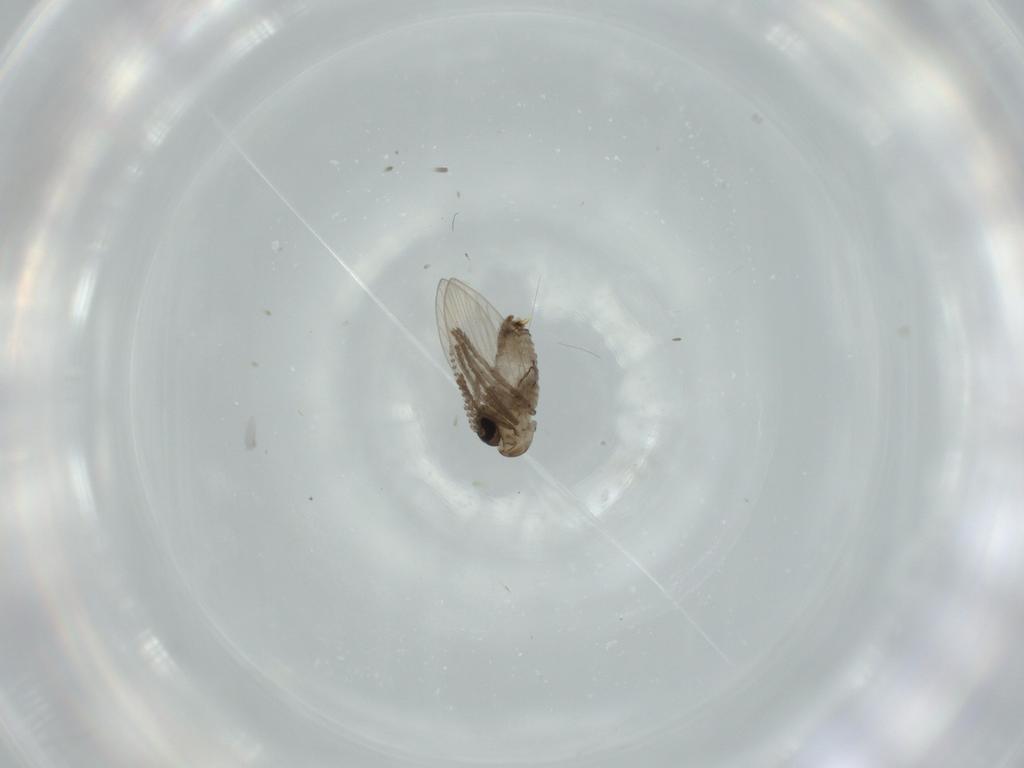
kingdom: Animalia
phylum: Arthropoda
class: Insecta
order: Diptera
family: Psychodidae
